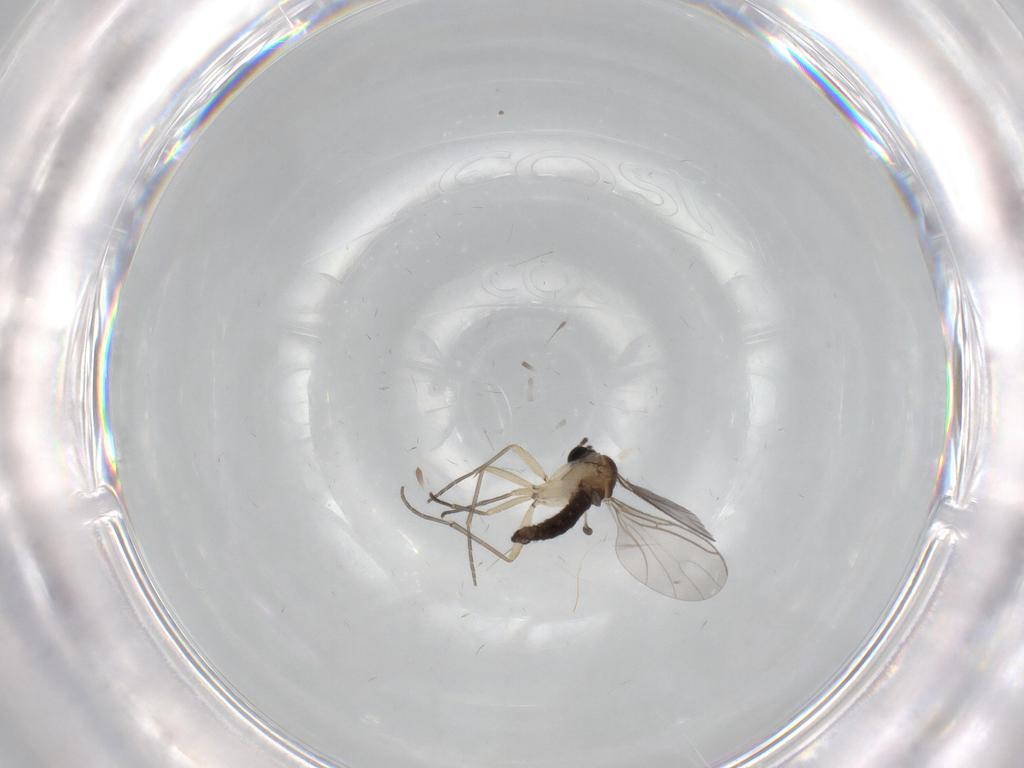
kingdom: Animalia
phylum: Arthropoda
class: Insecta
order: Diptera
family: Sciaridae
